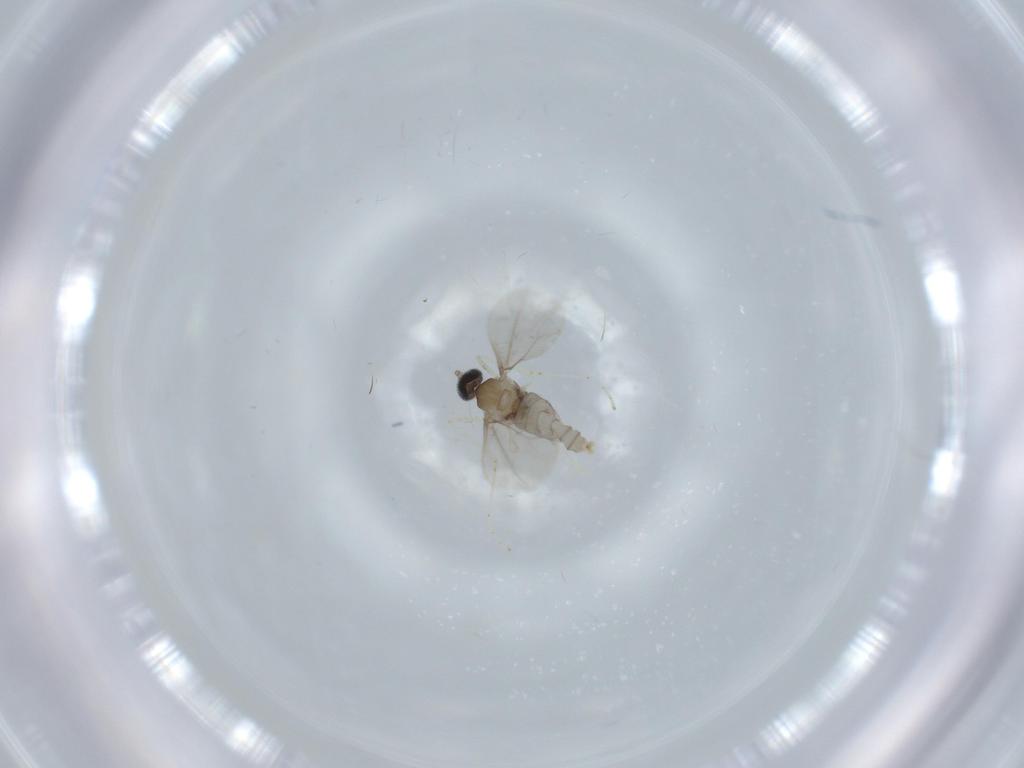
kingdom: Animalia
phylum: Arthropoda
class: Insecta
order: Diptera
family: Cecidomyiidae
